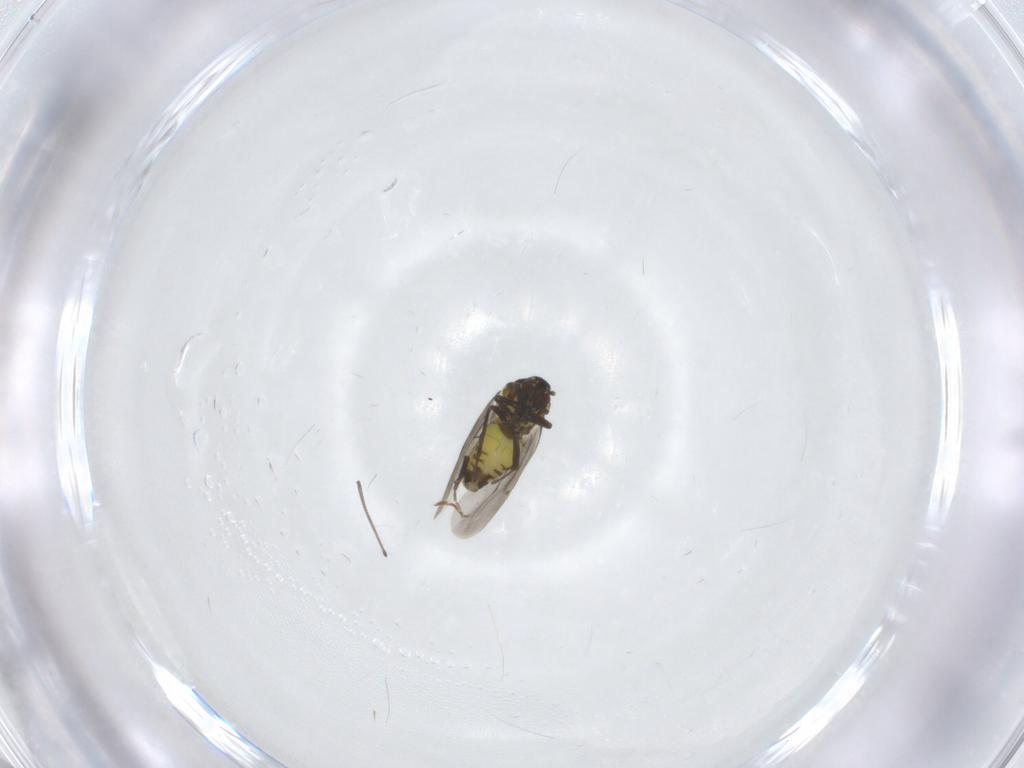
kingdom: Animalia
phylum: Arthropoda
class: Insecta
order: Hemiptera
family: Aleyrodidae
